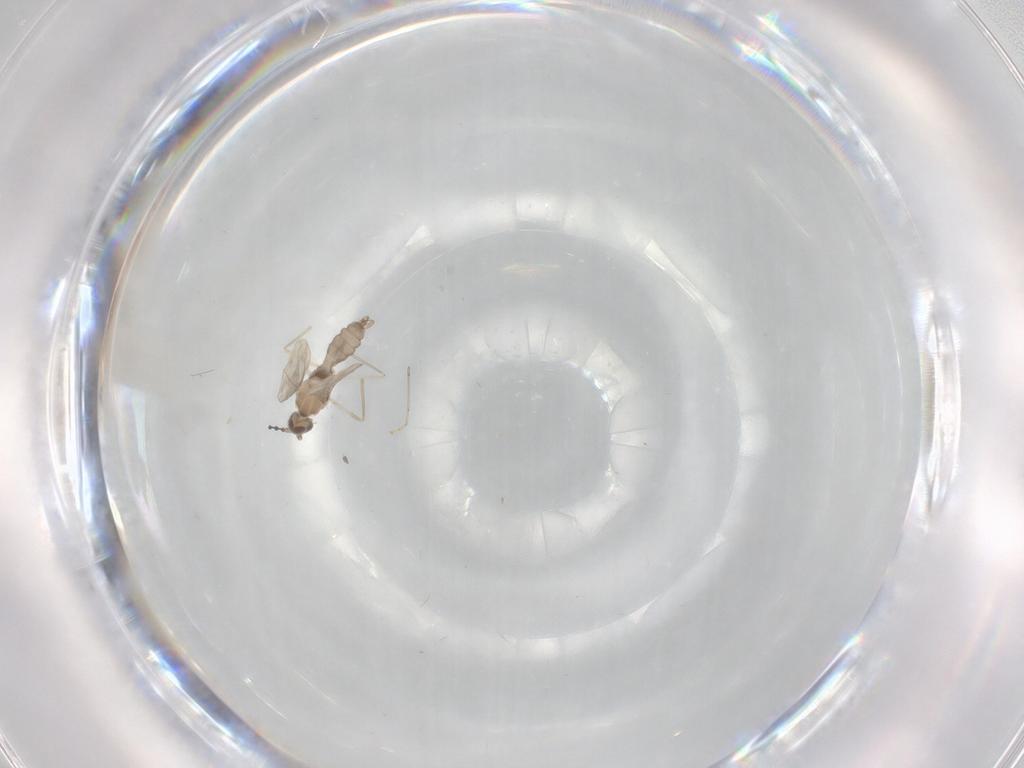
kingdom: Animalia
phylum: Arthropoda
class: Insecta
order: Diptera
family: Cecidomyiidae
